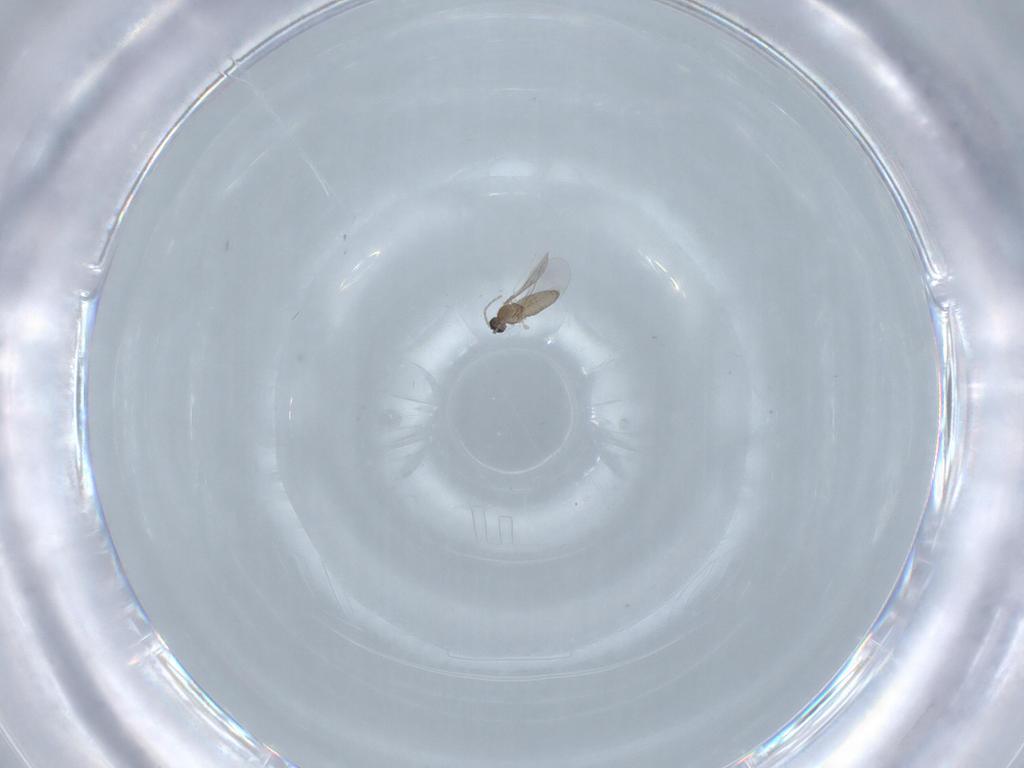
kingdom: Animalia
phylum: Arthropoda
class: Insecta
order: Diptera
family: Cecidomyiidae
